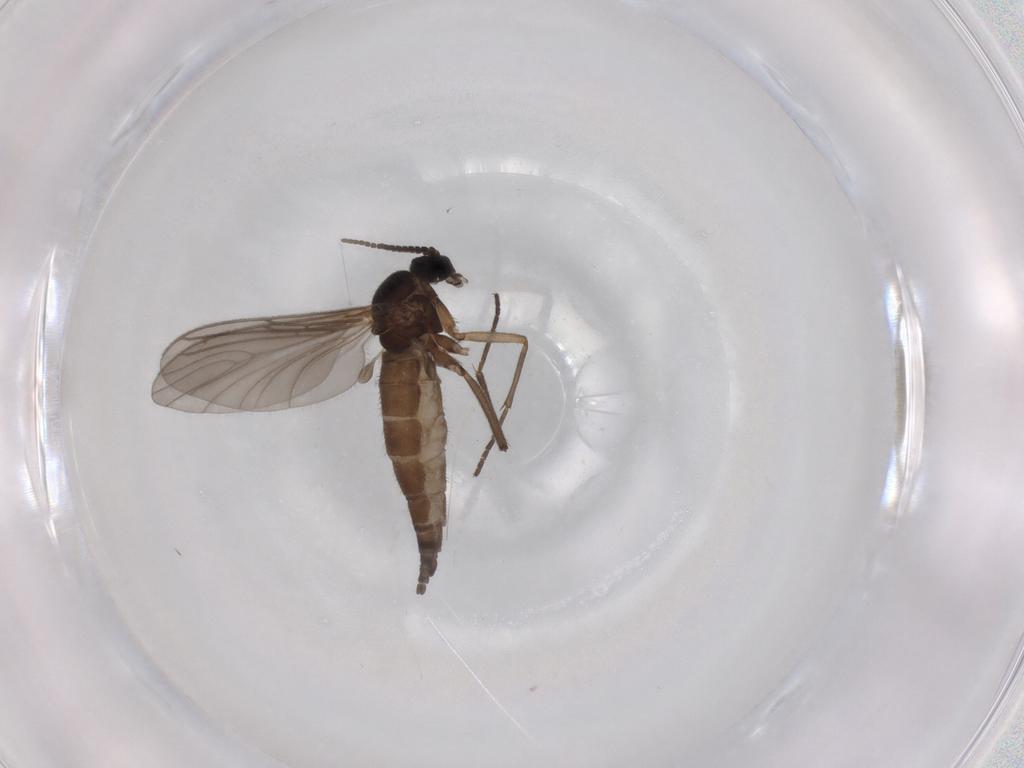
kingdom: Animalia
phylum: Arthropoda
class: Insecta
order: Diptera
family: Sciaridae
